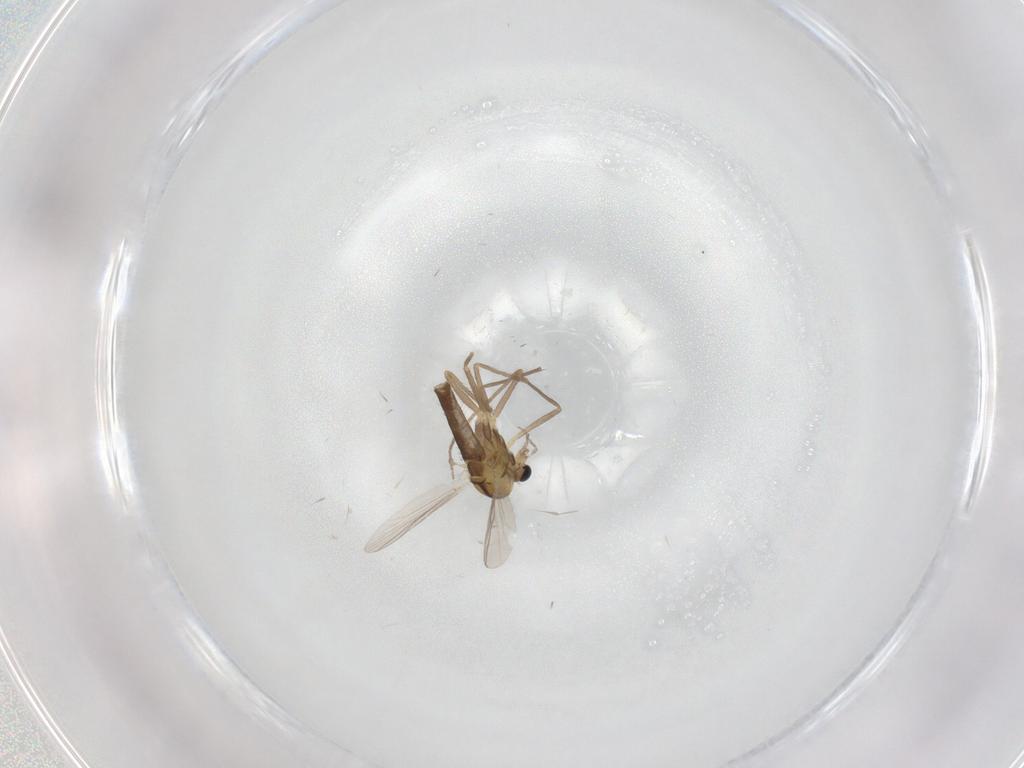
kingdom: Animalia
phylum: Arthropoda
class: Insecta
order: Diptera
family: Chironomidae
